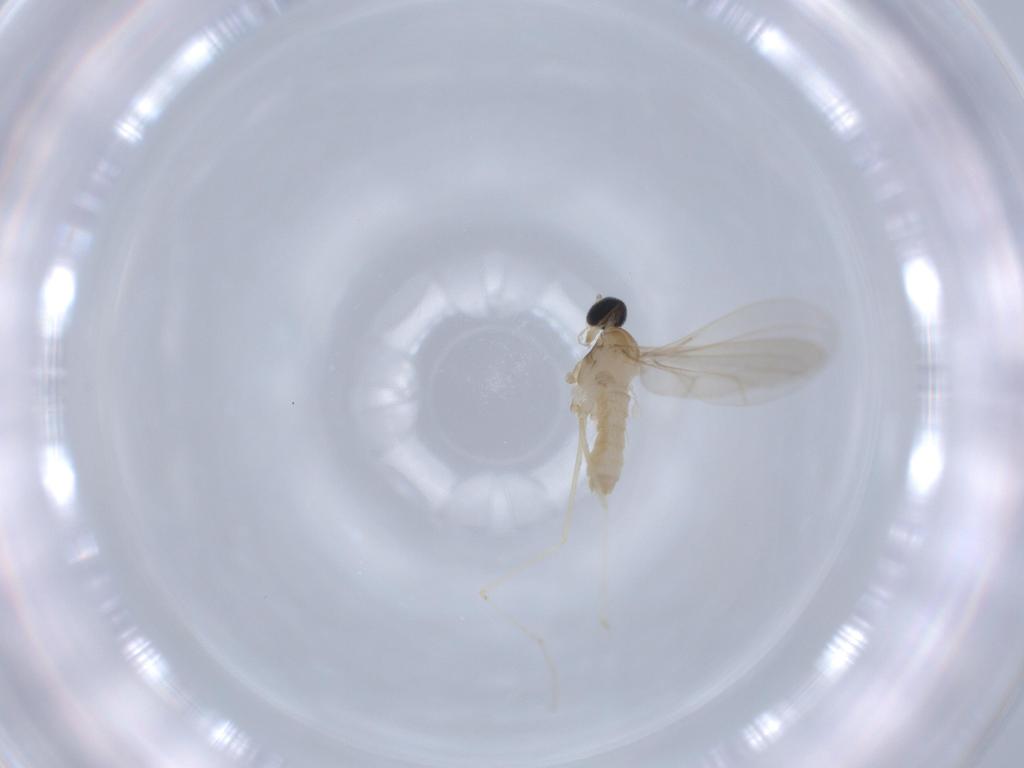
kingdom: Animalia
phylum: Arthropoda
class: Insecta
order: Diptera
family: Cecidomyiidae
